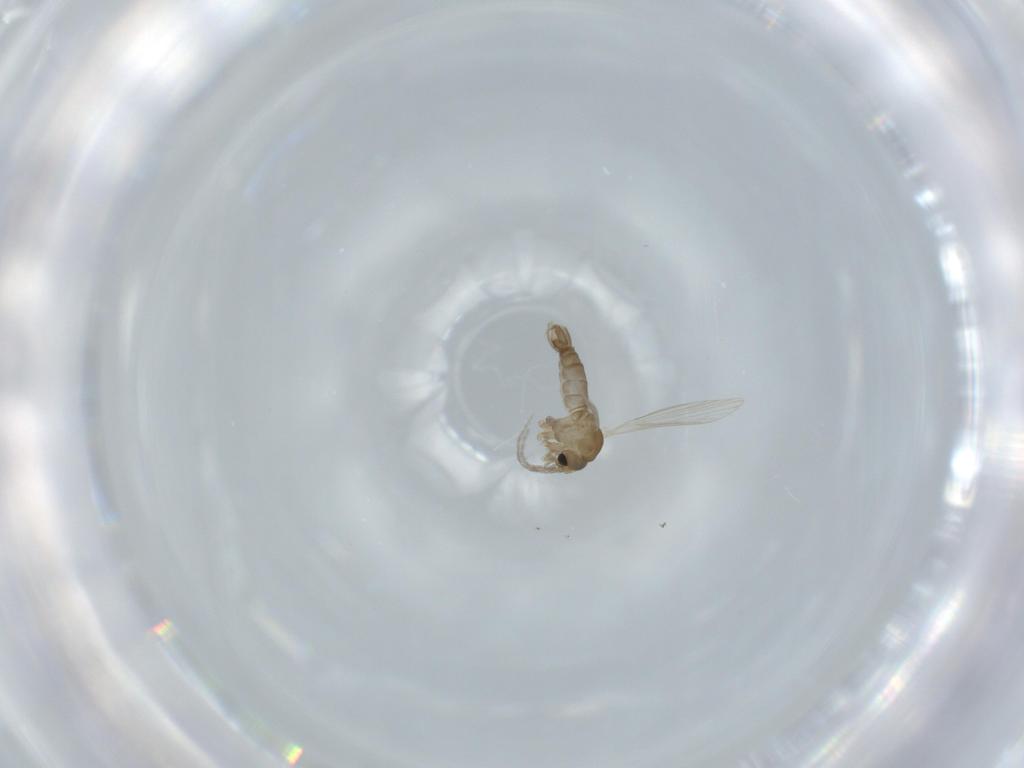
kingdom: Animalia
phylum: Arthropoda
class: Insecta
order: Diptera
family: Psychodidae
